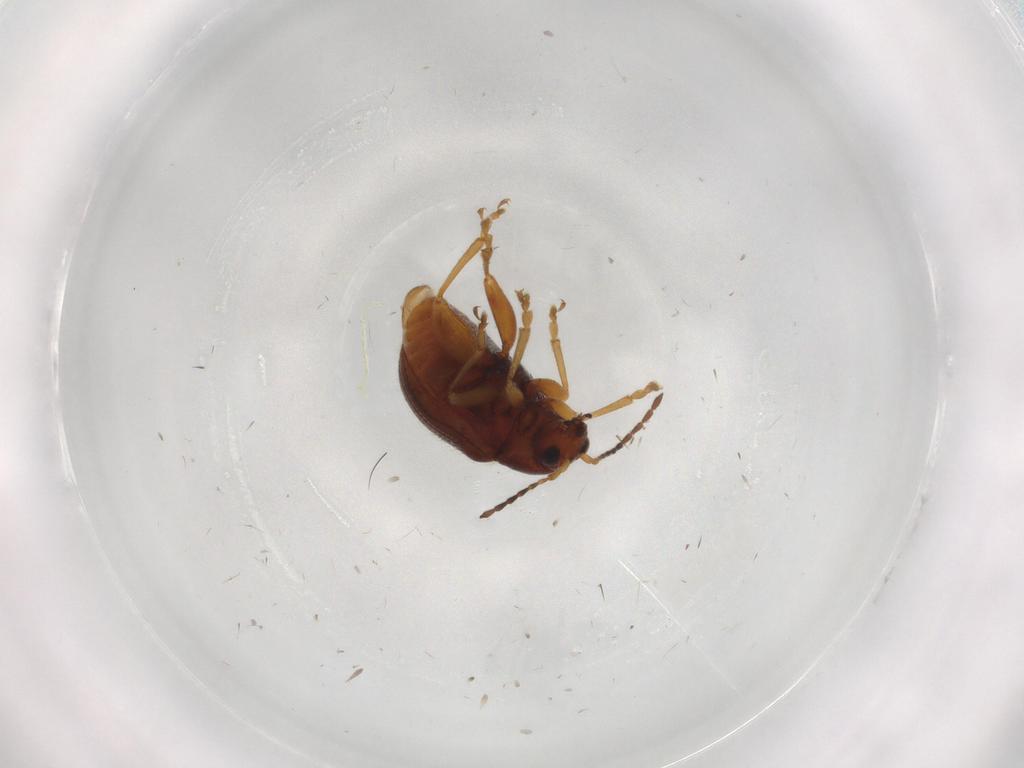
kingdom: Animalia
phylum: Arthropoda
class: Insecta
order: Coleoptera
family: Chrysomelidae
